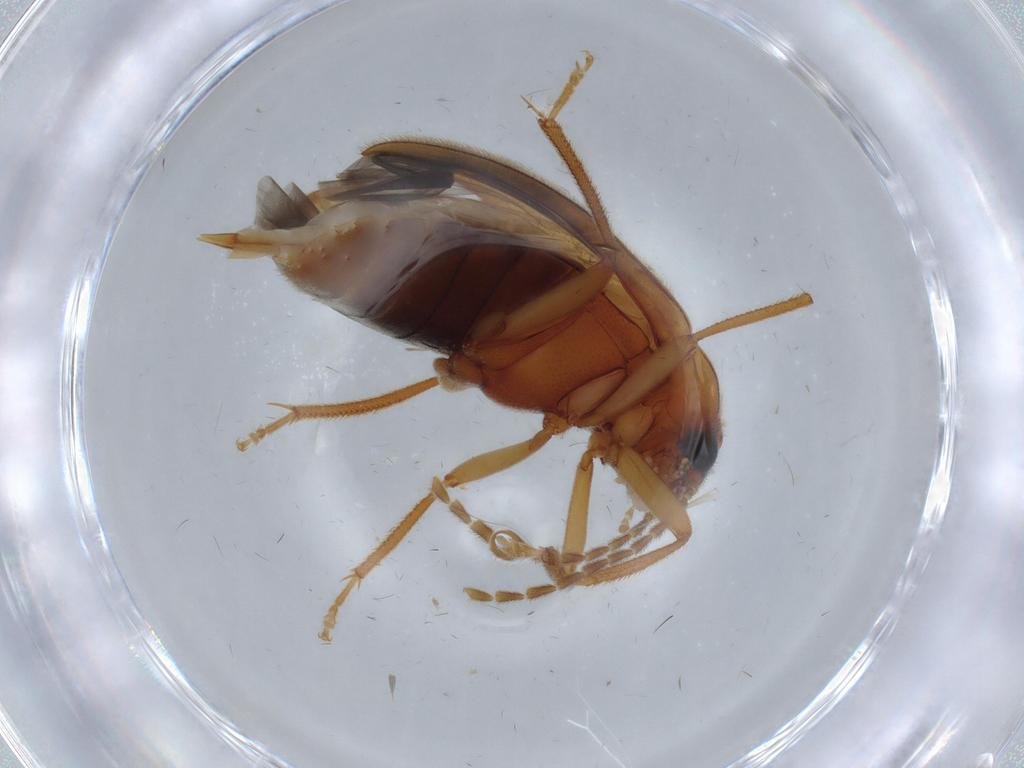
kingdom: Animalia
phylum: Arthropoda
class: Insecta
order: Coleoptera
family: Ptilodactylidae
